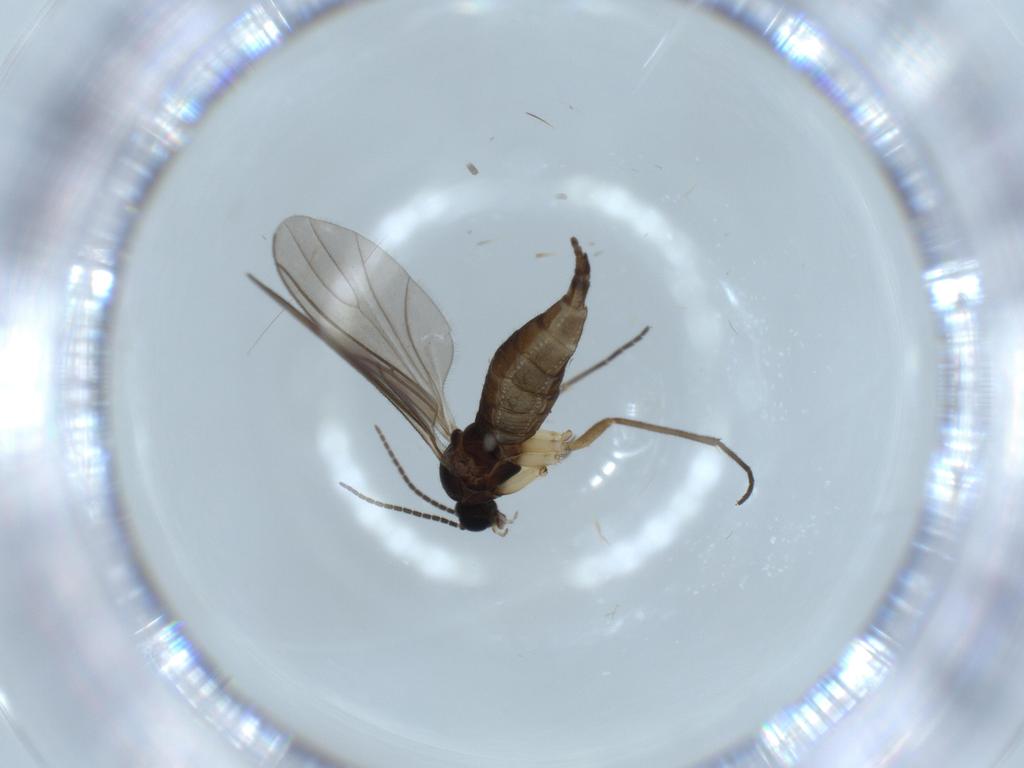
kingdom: Animalia
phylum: Arthropoda
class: Insecta
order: Diptera
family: Sciaridae
